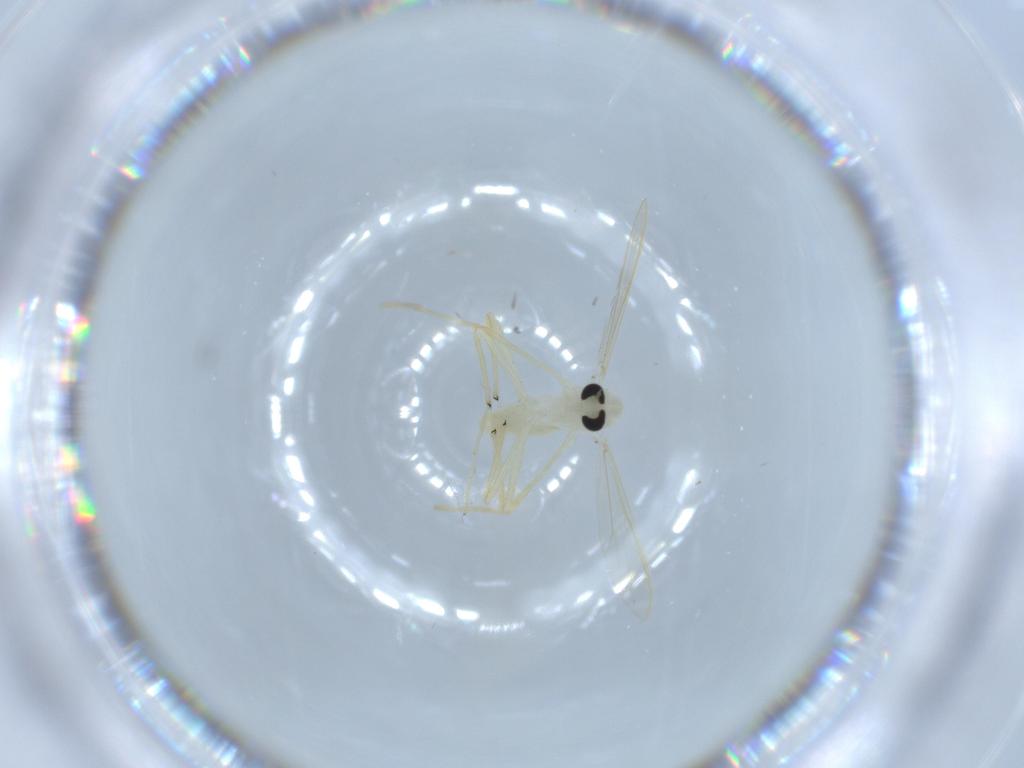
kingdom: Animalia
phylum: Arthropoda
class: Insecta
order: Diptera
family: Chironomidae
